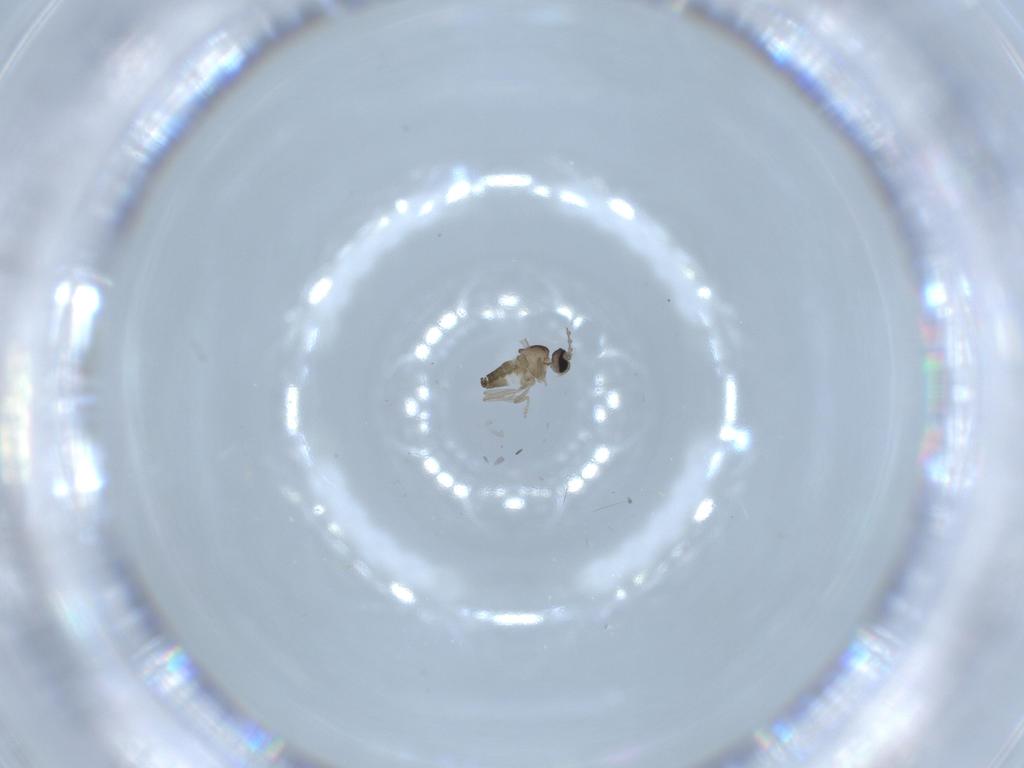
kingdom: Animalia
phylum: Arthropoda
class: Insecta
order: Diptera
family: Cecidomyiidae
